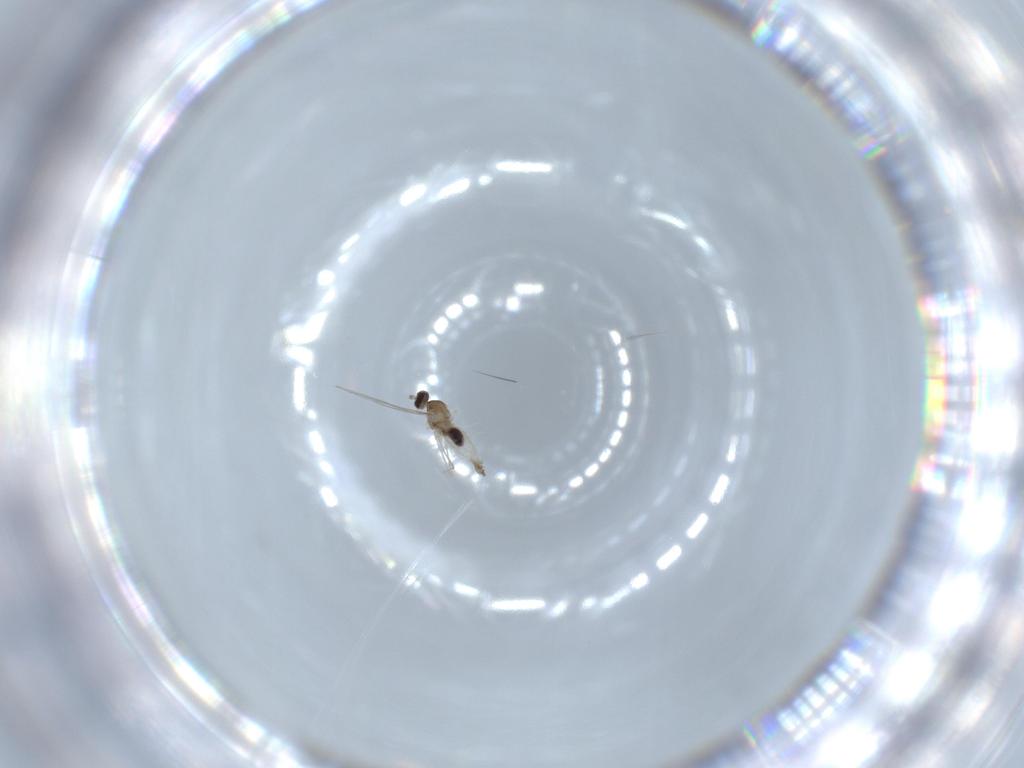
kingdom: Animalia
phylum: Arthropoda
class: Insecta
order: Diptera
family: Cecidomyiidae
